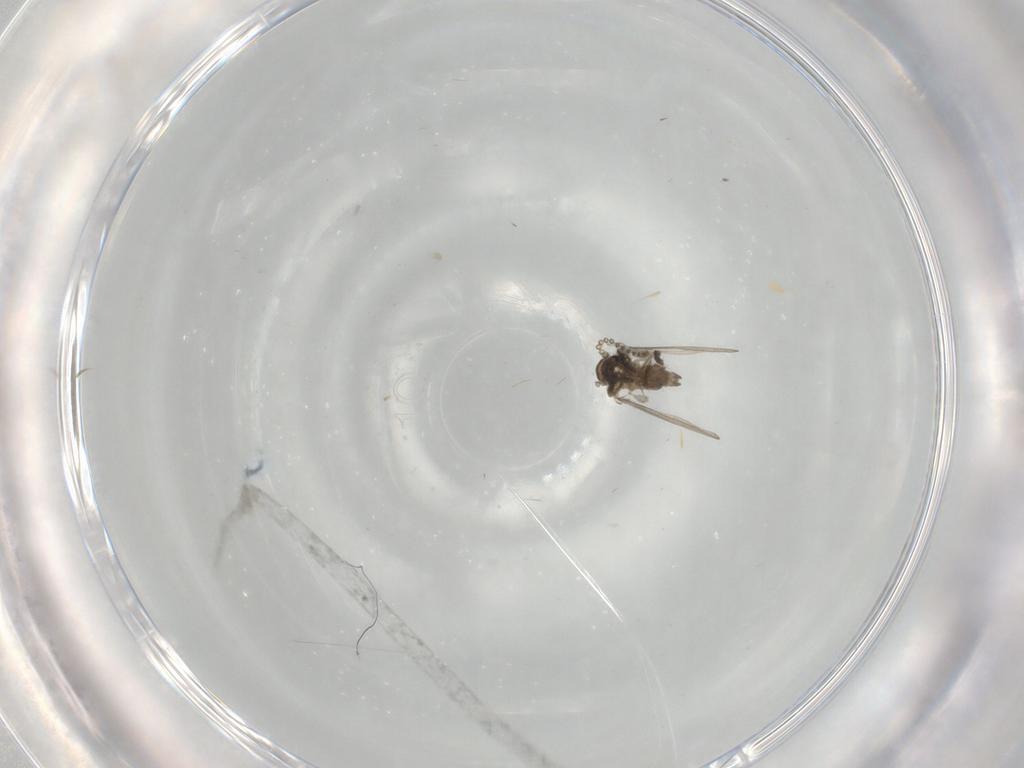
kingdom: Animalia
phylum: Arthropoda
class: Insecta
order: Diptera
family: Psychodidae
